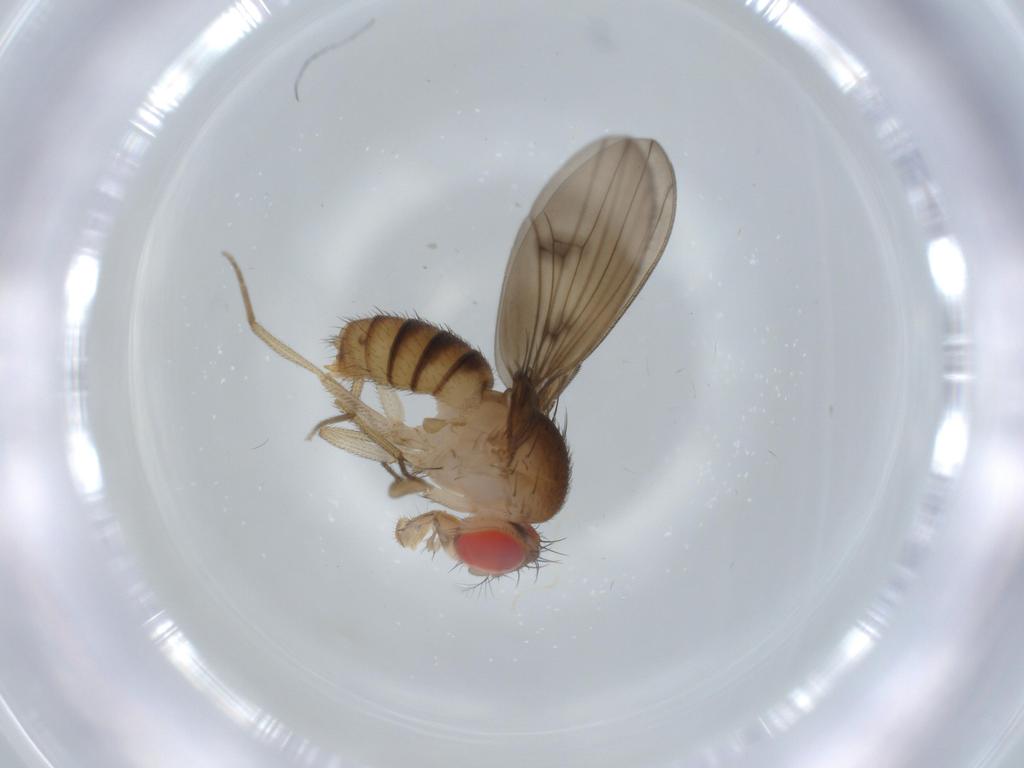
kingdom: Animalia
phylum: Arthropoda
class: Insecta
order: Diptera
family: Drosophilidae
